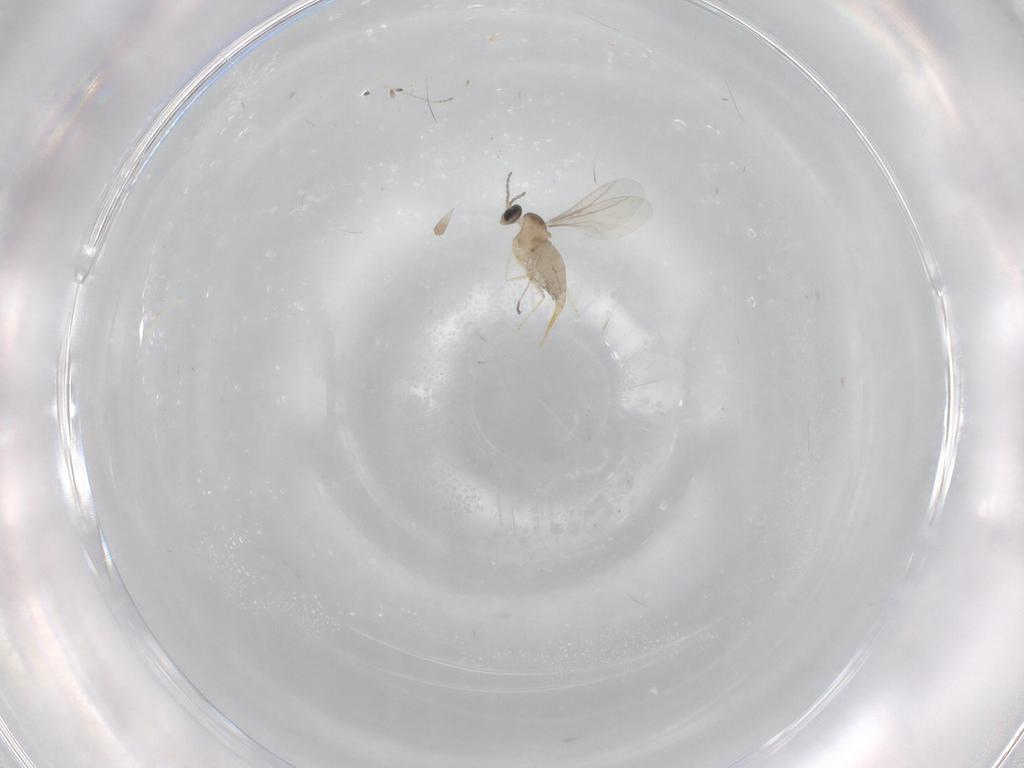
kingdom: Animalia
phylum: Arthropoda
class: Insecta
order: Diptera
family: Cecidomyiidae
